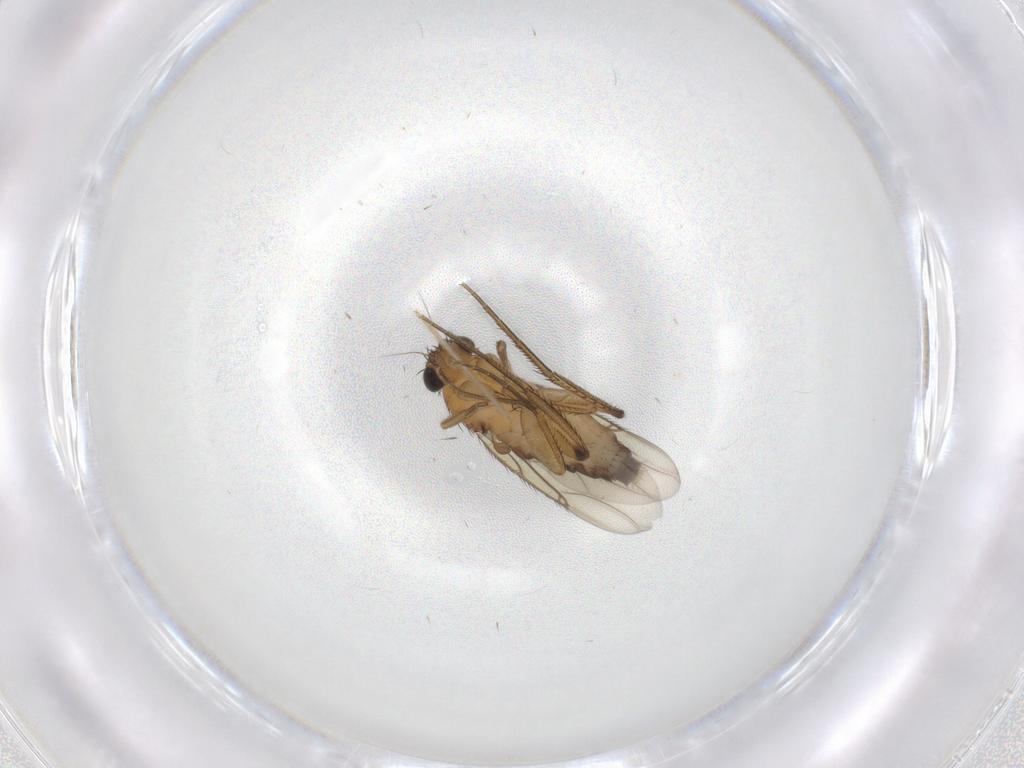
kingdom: Animalia
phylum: Arthropoda
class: Insecta
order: Diptera
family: Phoridae
